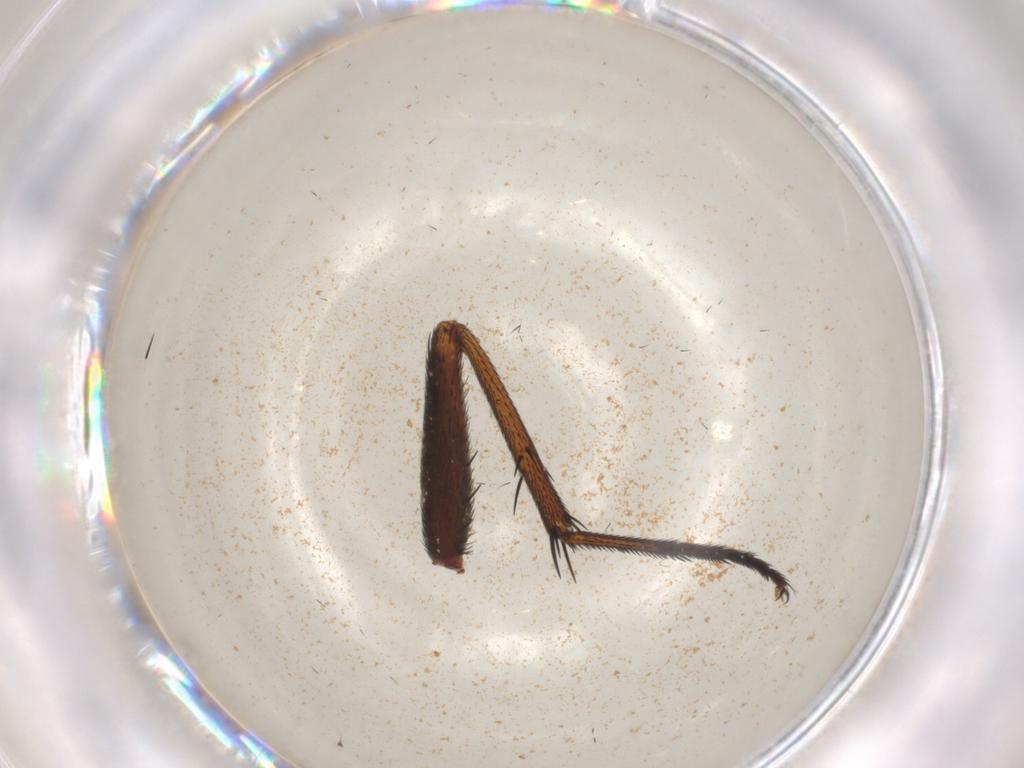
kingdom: Animalia
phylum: Arthropoda
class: Insecta
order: Diptera
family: Calliphoridae
